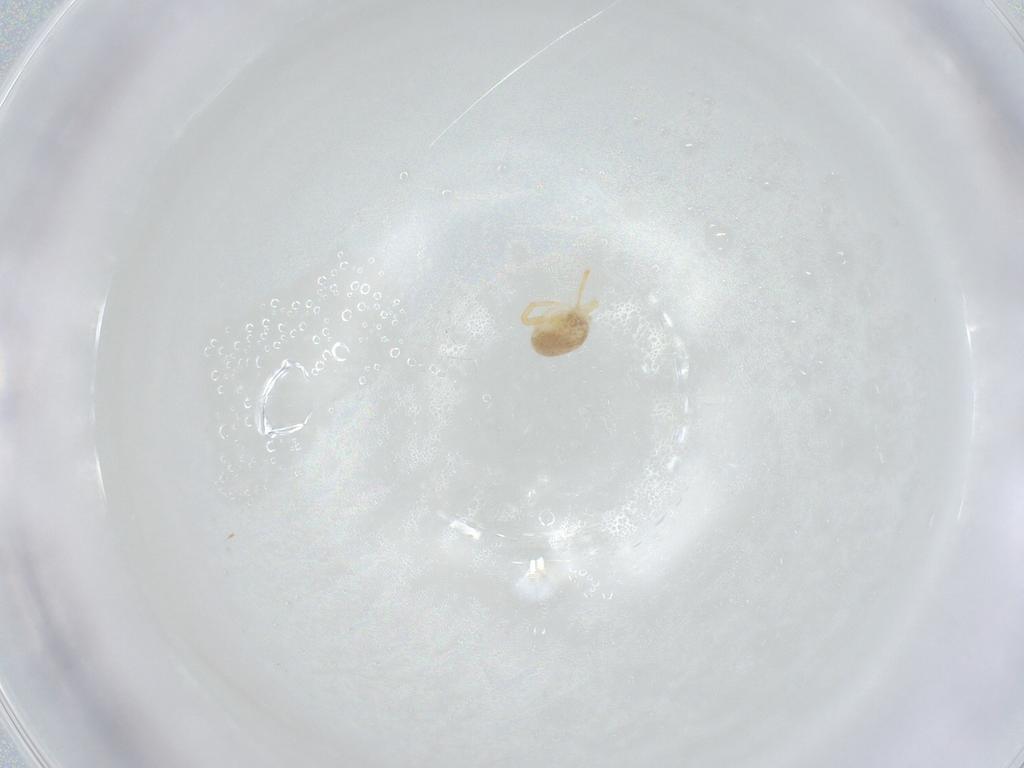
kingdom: Animalia
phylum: Arthropoda
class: Arachnida
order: Trombidiformes
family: Eupodidae
